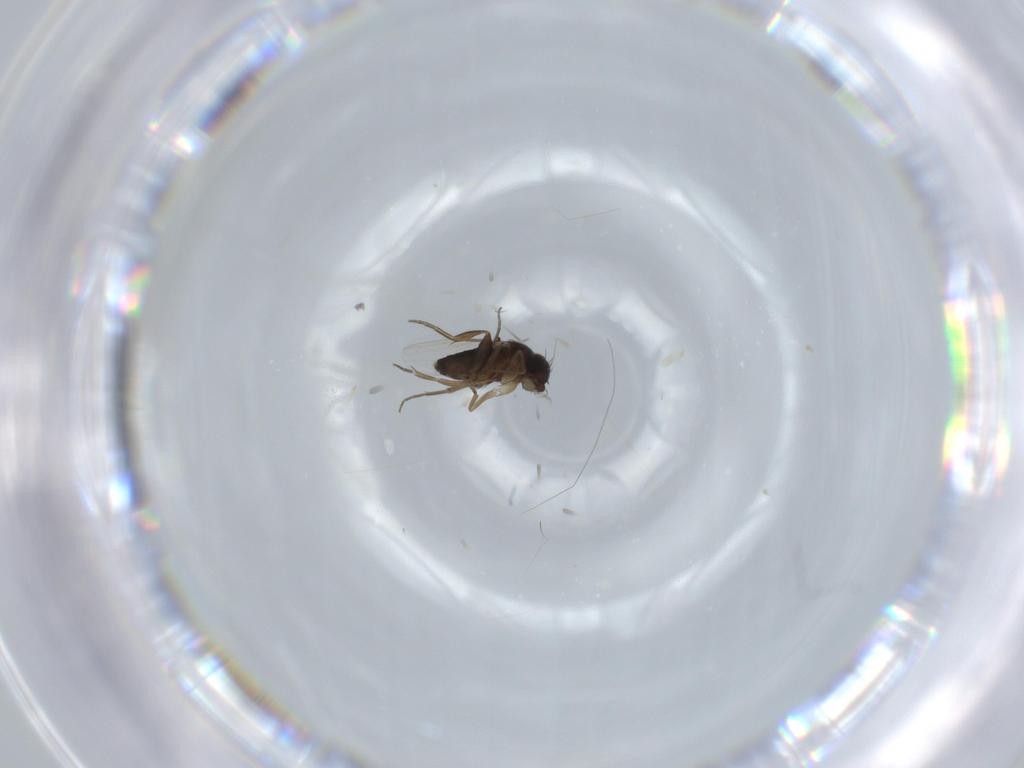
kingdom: Animalia
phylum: Arthropoda
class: Insecta
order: Diptera
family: Phoridae
